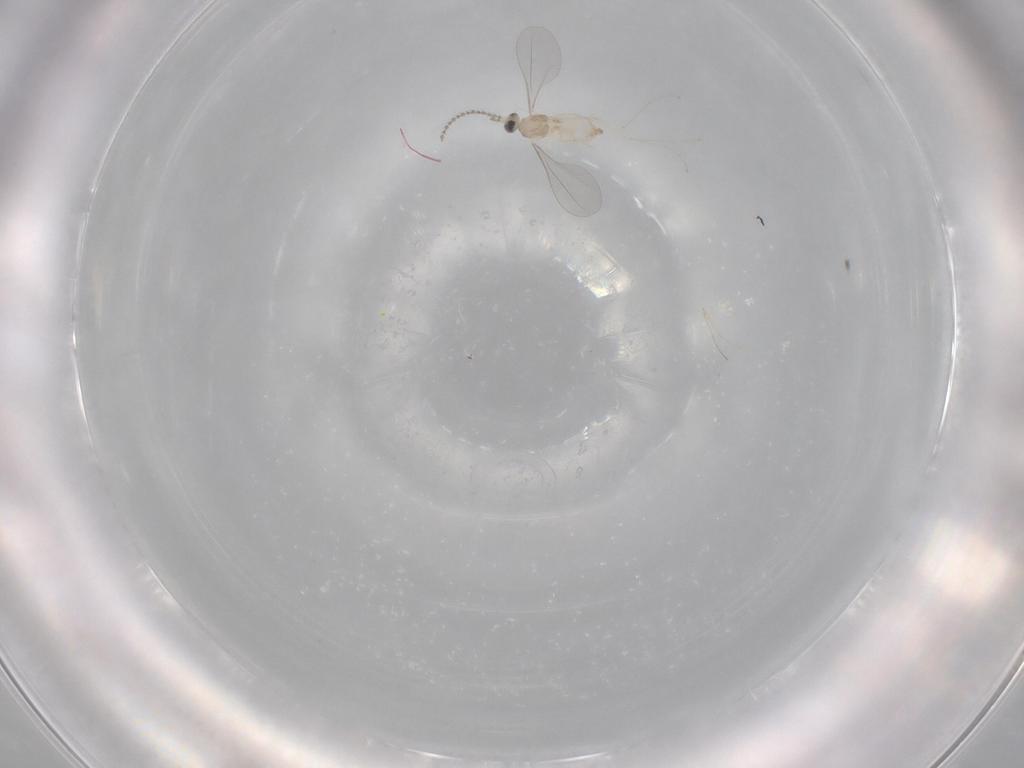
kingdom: Animalia
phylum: Arthropoda
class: Insecta
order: Diptera
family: Cecidomyiidae
